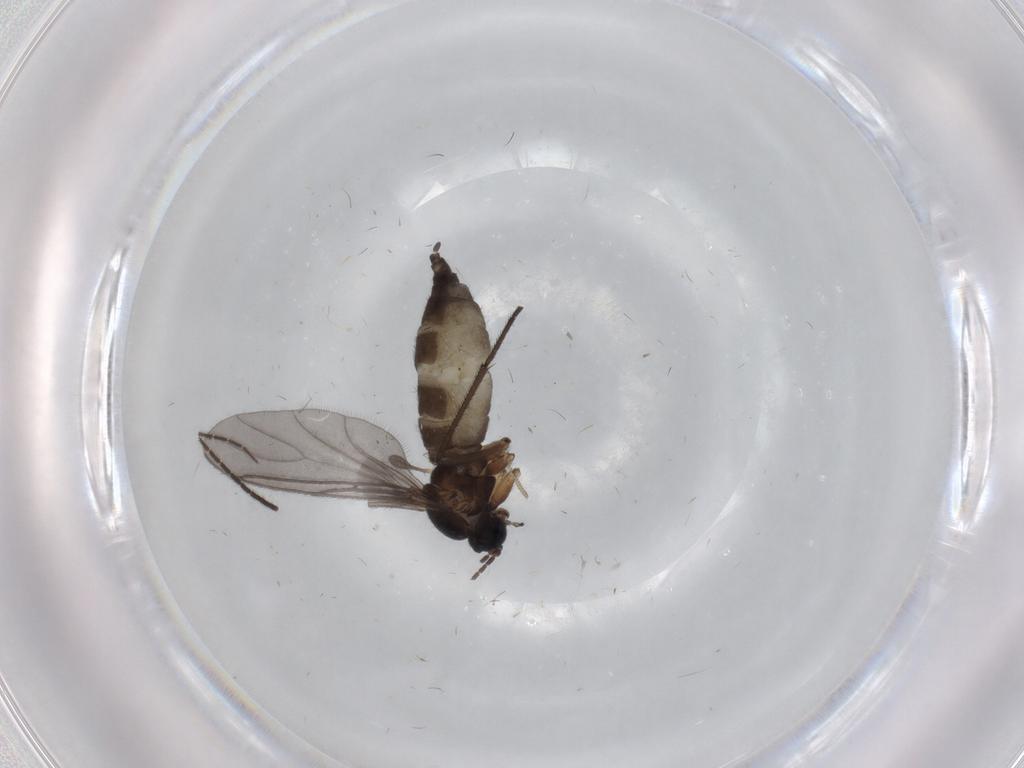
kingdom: Animalia
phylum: Arthropoda
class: Insecta
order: Diptera
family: Sciaridae
